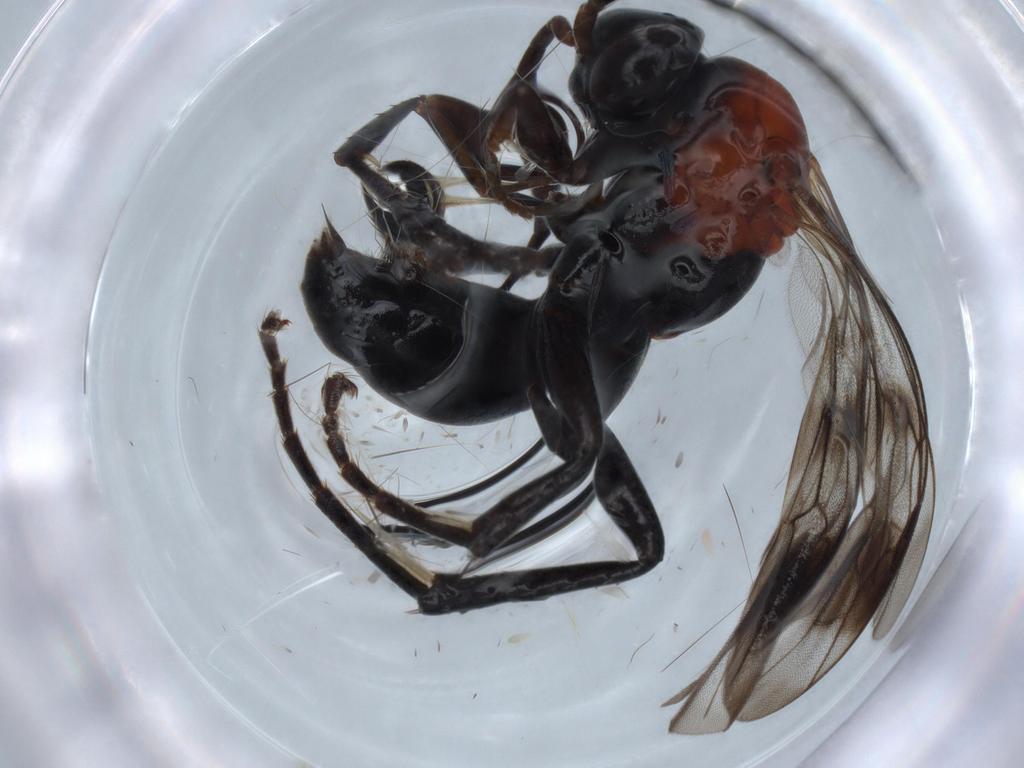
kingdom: Animalia
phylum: Arthropoda
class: Insecta
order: Hymenoptera
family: Pompilidae
